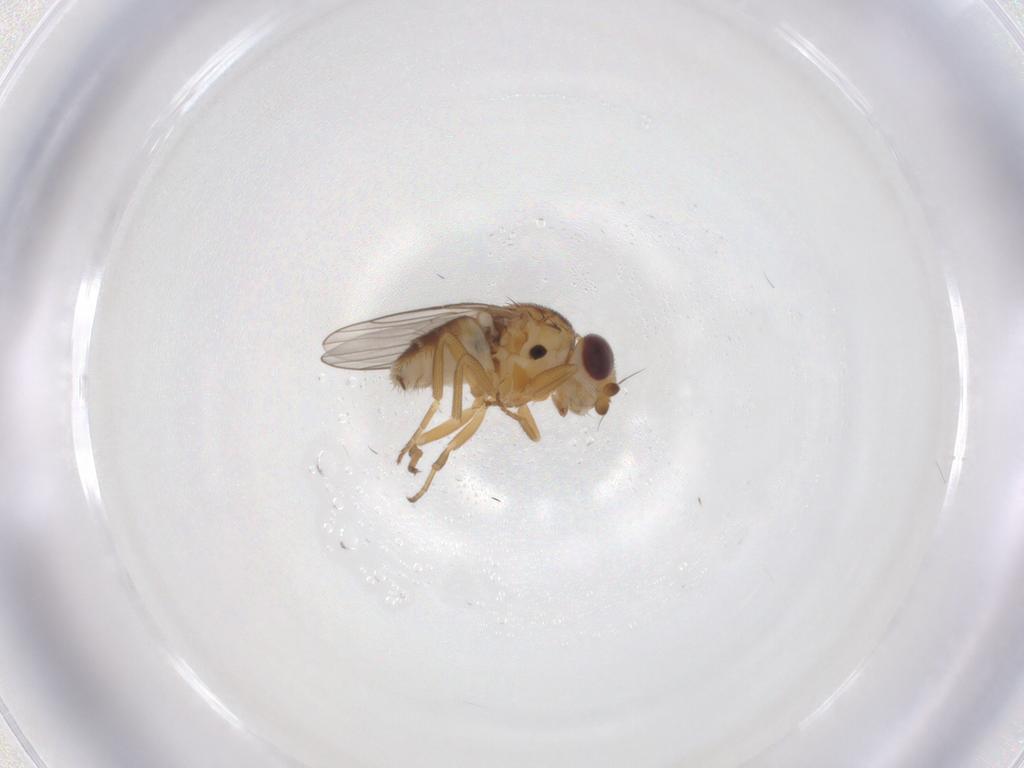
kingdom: Animalia
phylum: Arthropoda
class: Insecta
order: Diptera
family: Chloropidae
